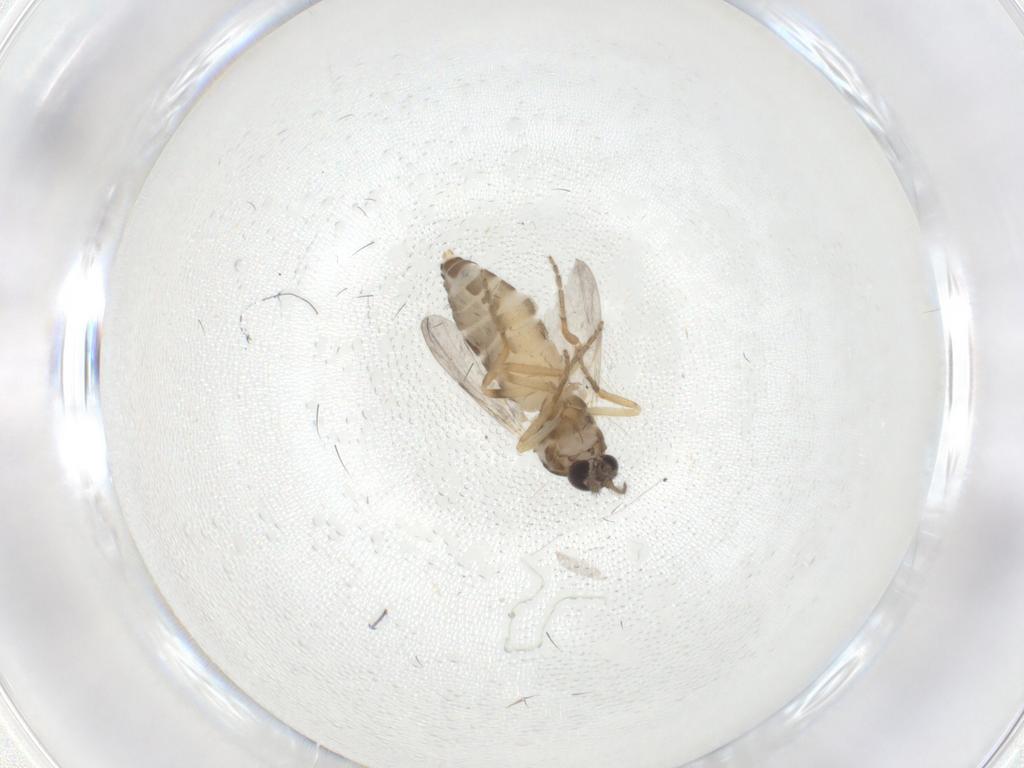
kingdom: Animalia
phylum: Arthropoda
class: Insecta
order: Diptera
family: Ceratopogonidae
